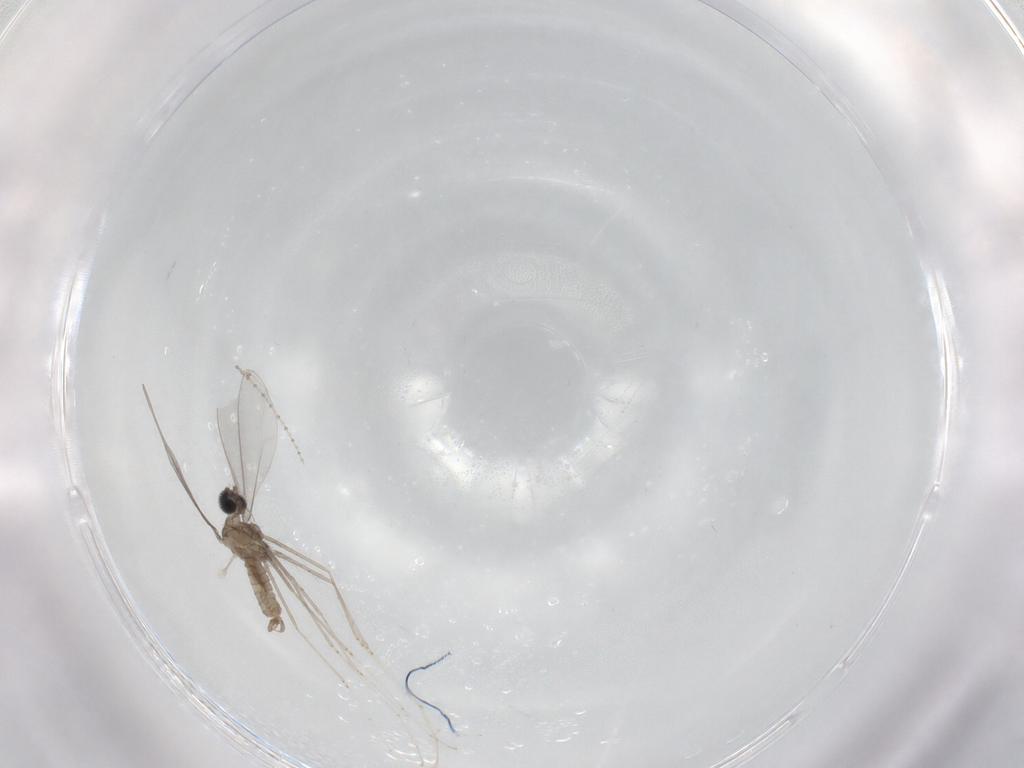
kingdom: Animalia
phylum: Arthropoda
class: Insecta
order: Diptera
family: Cecidomyiidae
